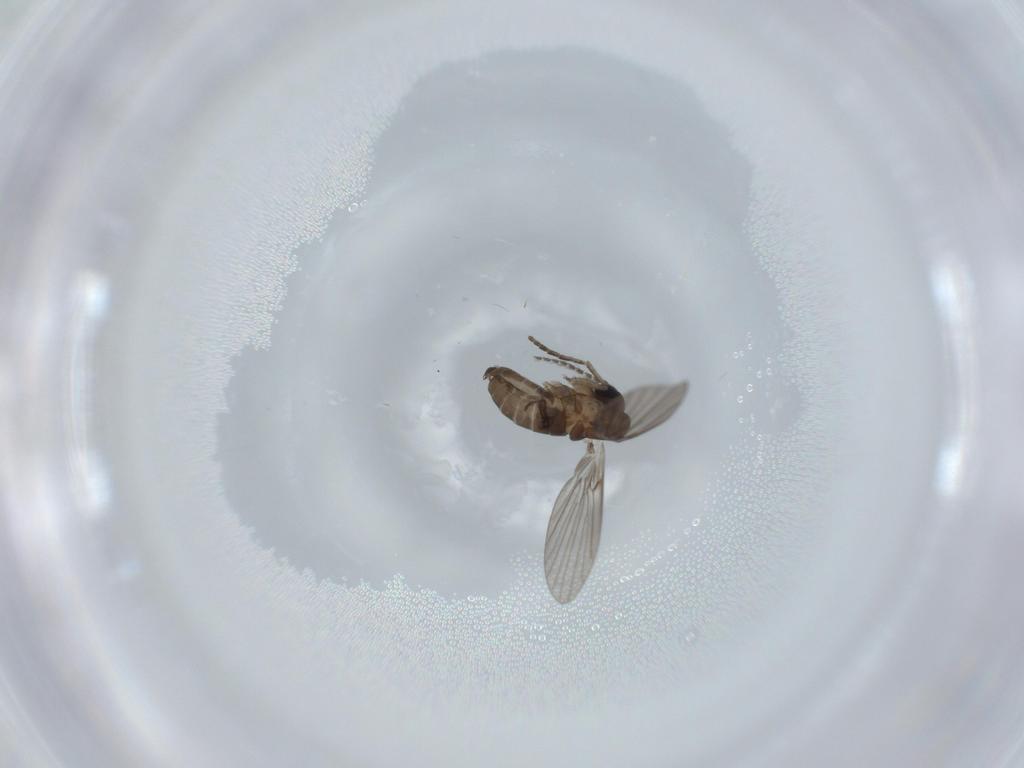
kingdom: Animalia
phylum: Arthropoda
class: Insecta
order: Diptera
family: Psychodidae
